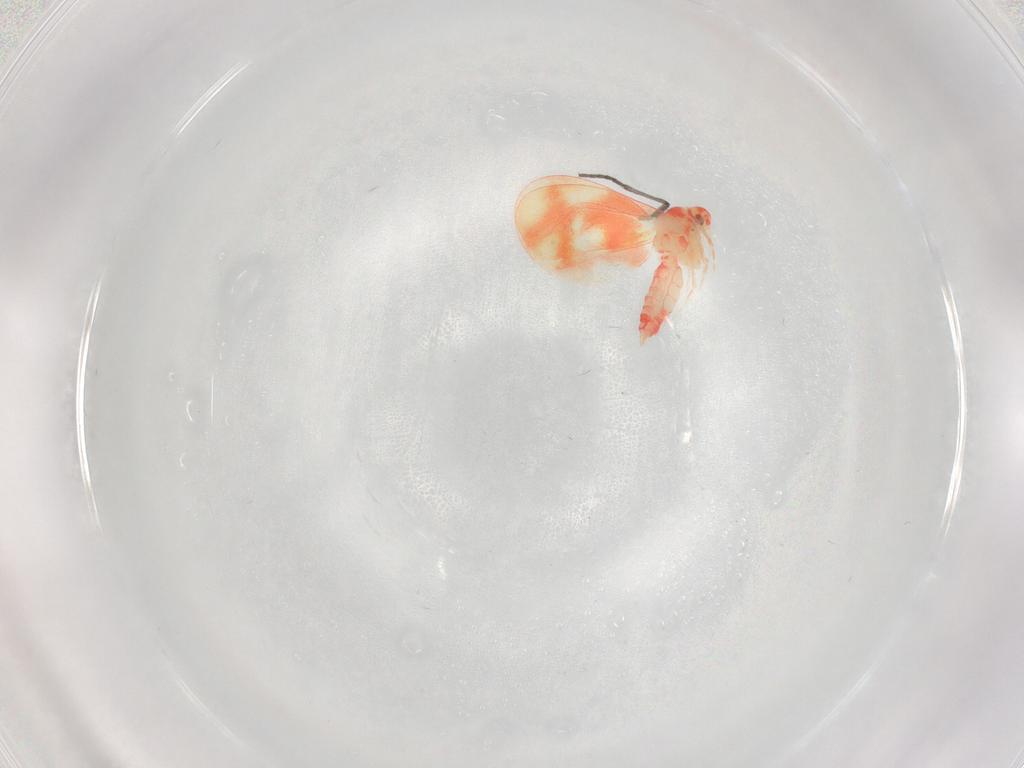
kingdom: Animalia
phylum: Arthropoda
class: Insecta
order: Hemiptera
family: Aleyrodidae
